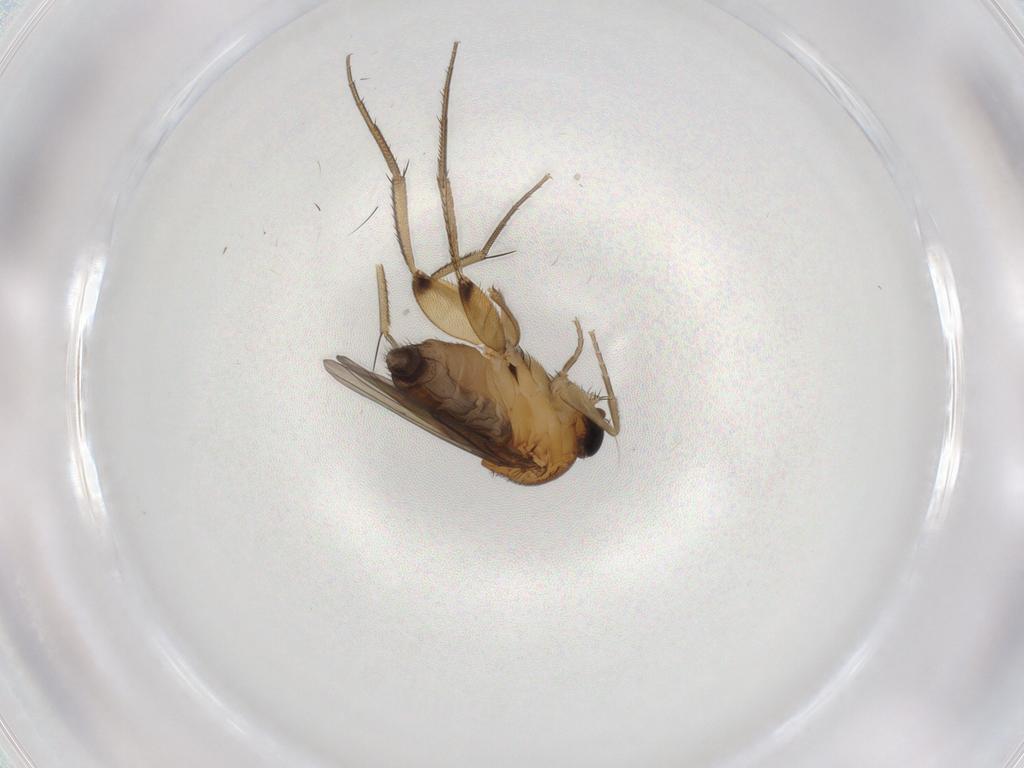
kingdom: Animalia
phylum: Arthropoda
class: Insecta
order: Diptera
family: Phoridae
